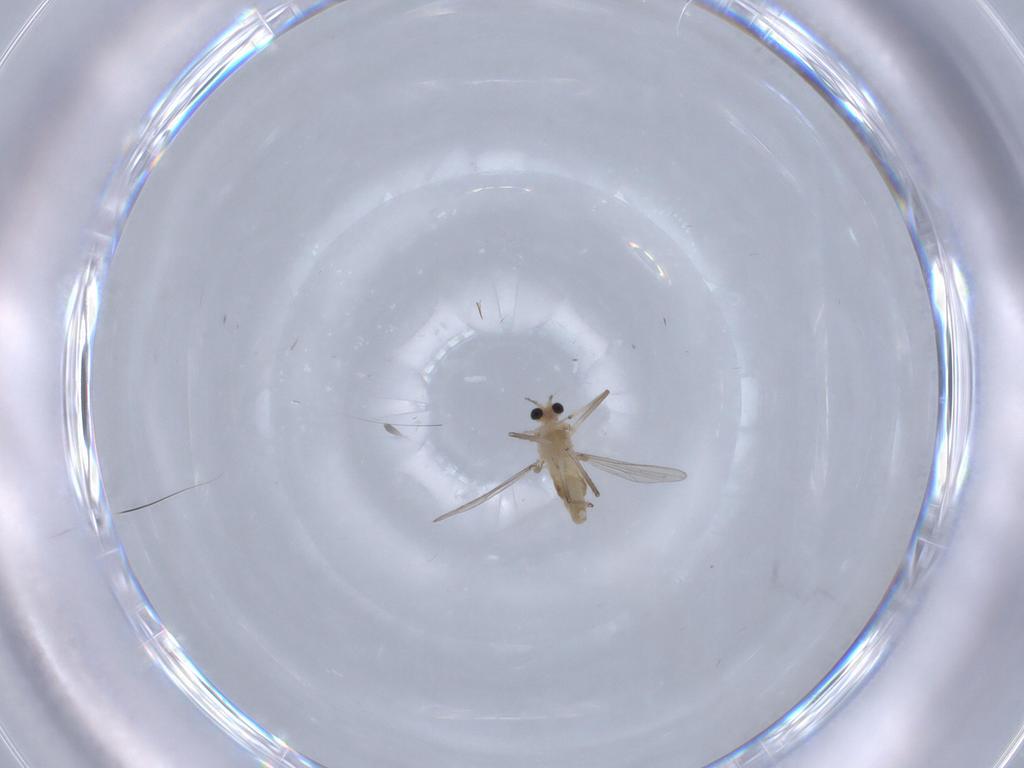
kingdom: Animalia
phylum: Arthropoda
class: Insecta
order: Diptera
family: Chironomidae
